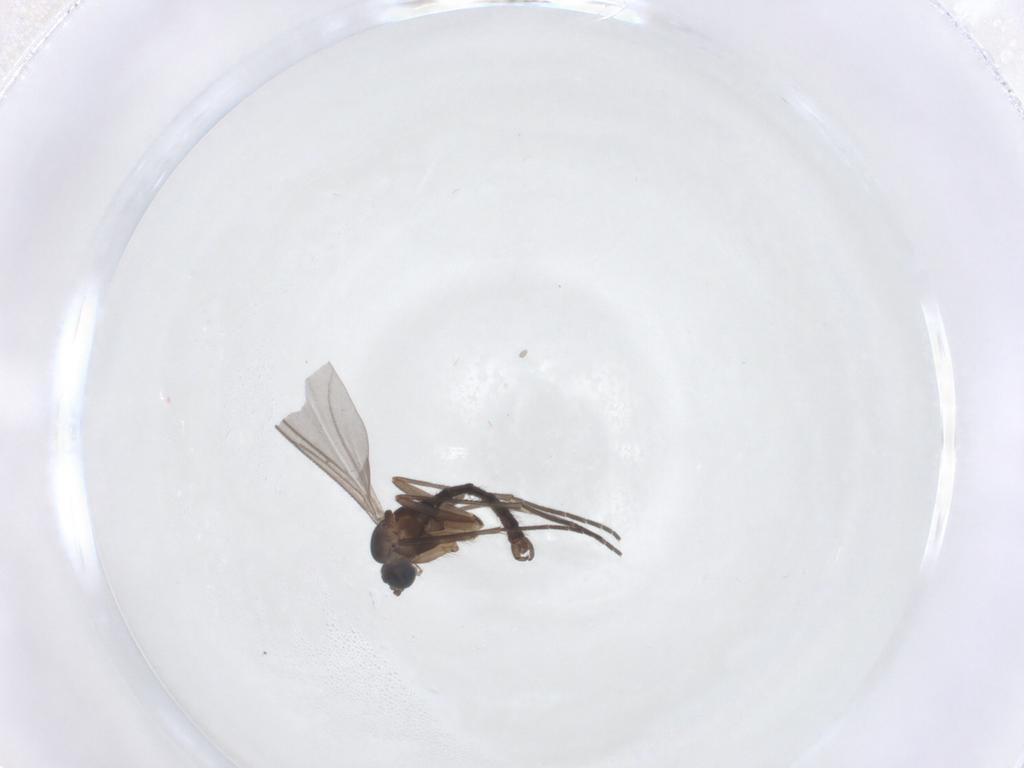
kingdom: Animalia
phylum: Arthropoda
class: Insecta
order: Diptera
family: Sciaridae
